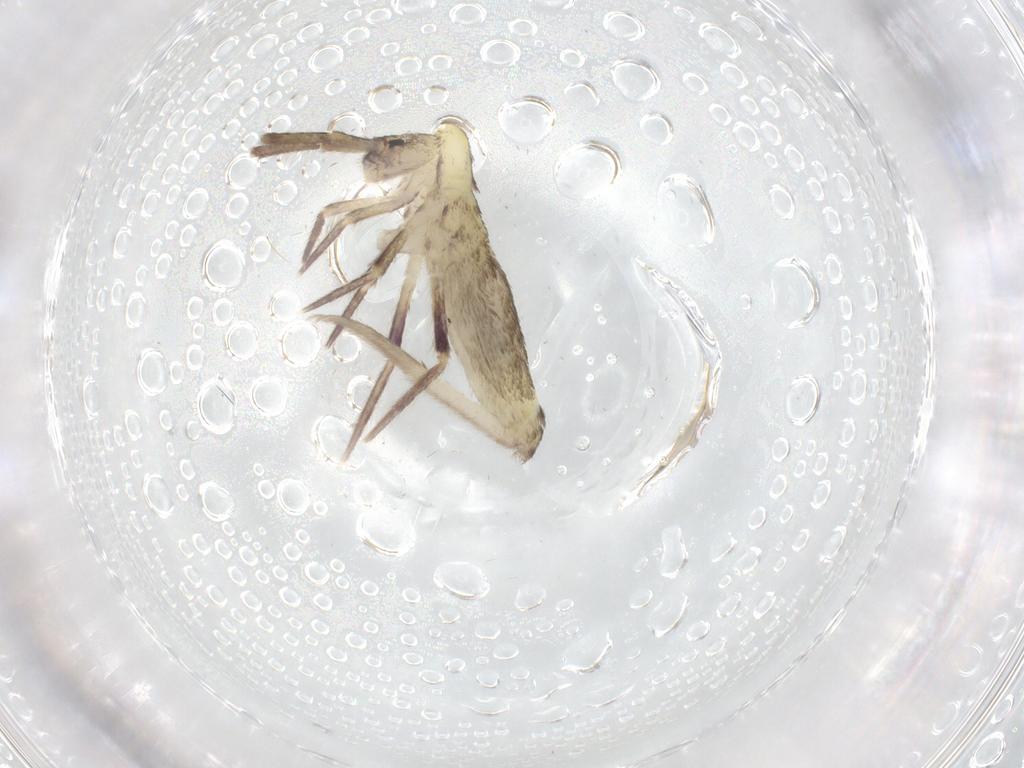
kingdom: Animalia
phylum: Arthropoda
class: Collembola
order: Entomobryomorpha
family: Entomobryidae
